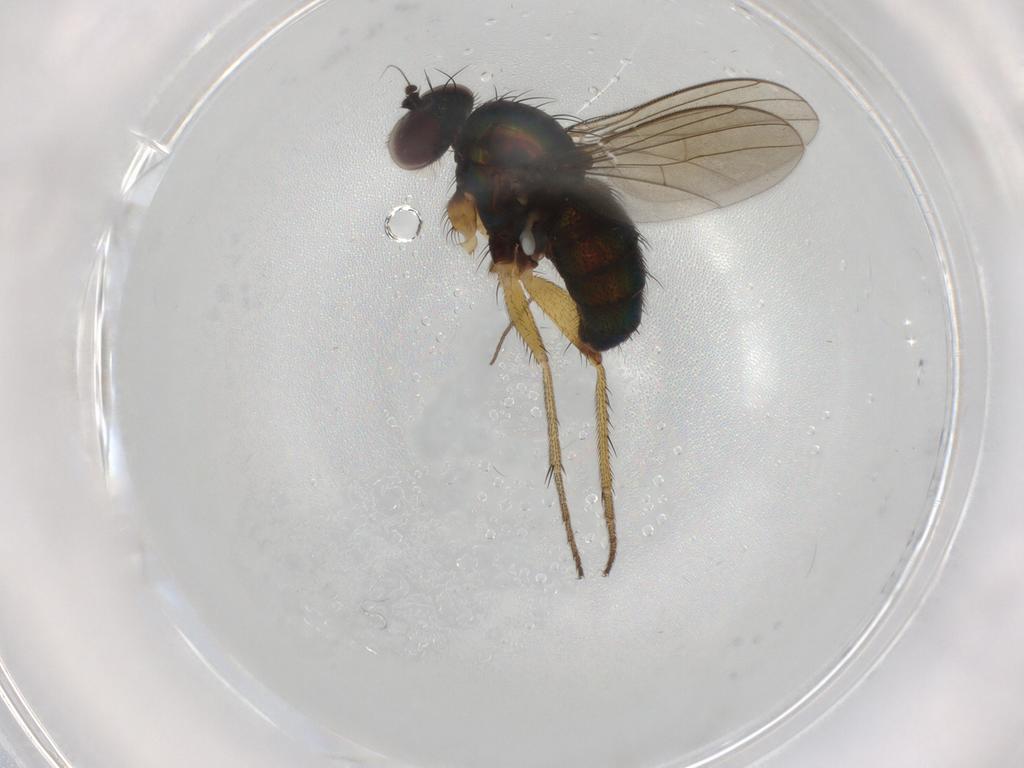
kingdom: Animalia
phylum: Arthropoda
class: Insecta
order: Diptera
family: Dolichopodidae
